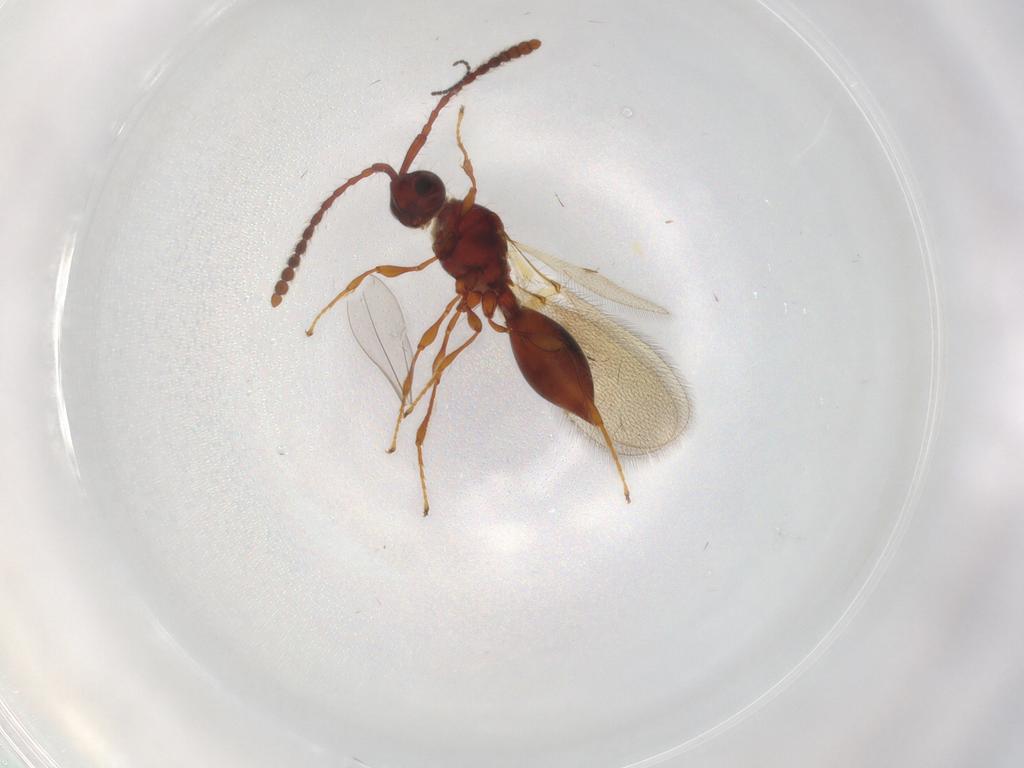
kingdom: Animalia
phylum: Arthropoda
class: Insecta
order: Hymenoptera
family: Diapriidae
